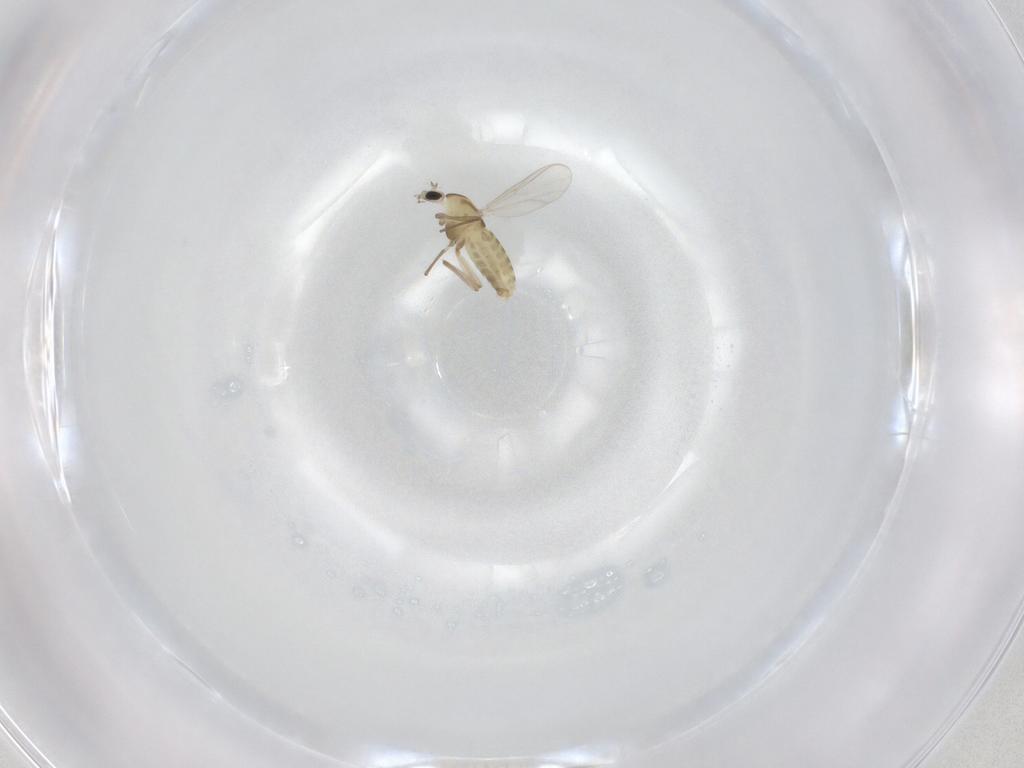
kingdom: Animalia
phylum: Arthropoda
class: Insecta
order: Diptera
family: Chironomidae
